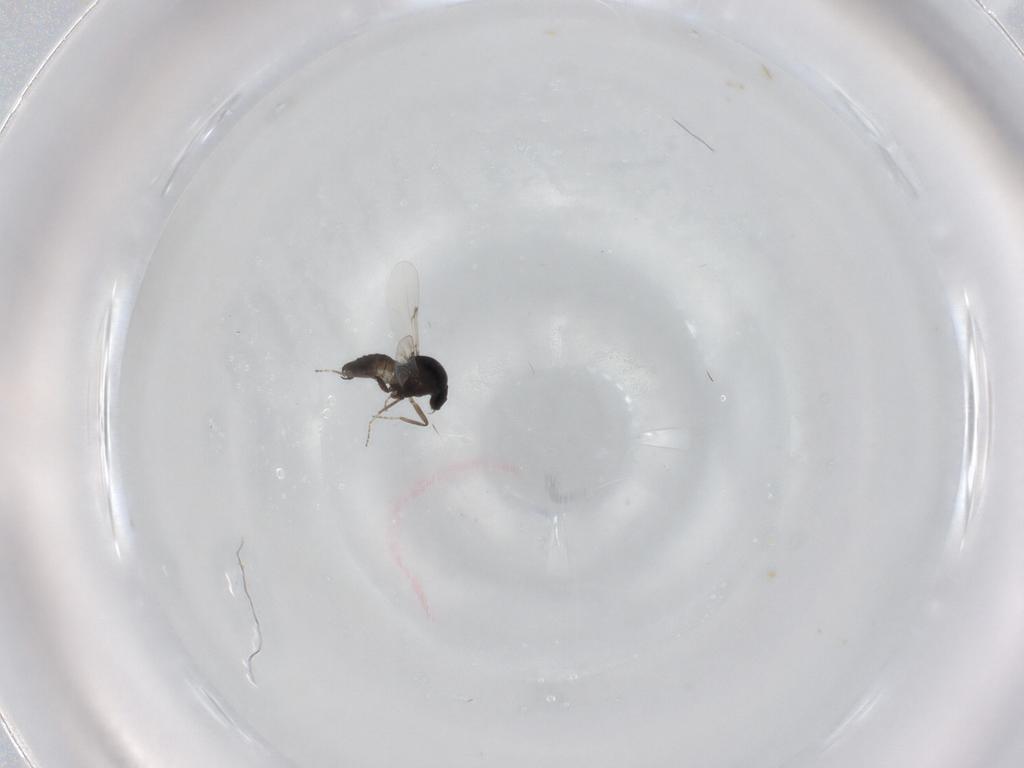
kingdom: Animalia
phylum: Arthropoda
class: Insecta
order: Diptera
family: Ceratopogonidae
